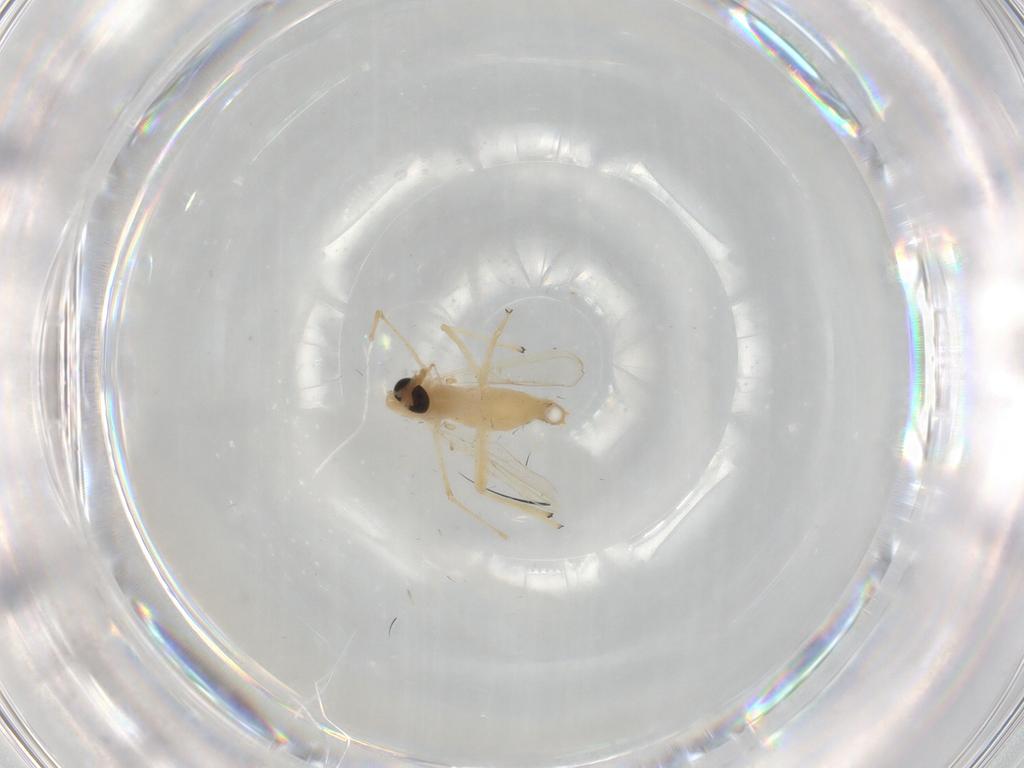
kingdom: Animalia
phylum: Arthropoda
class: Insecta
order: Diptera
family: Chironomidae
